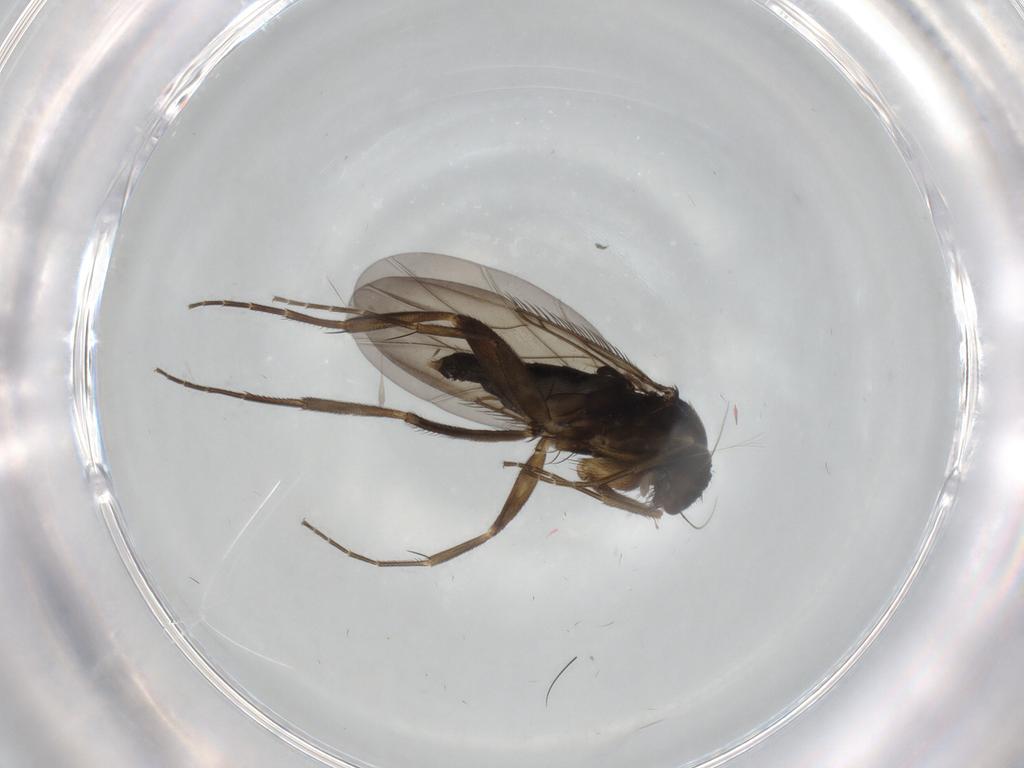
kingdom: Animalia
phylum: Arthropoda
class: Insecta
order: Diptera
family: Phoridae
